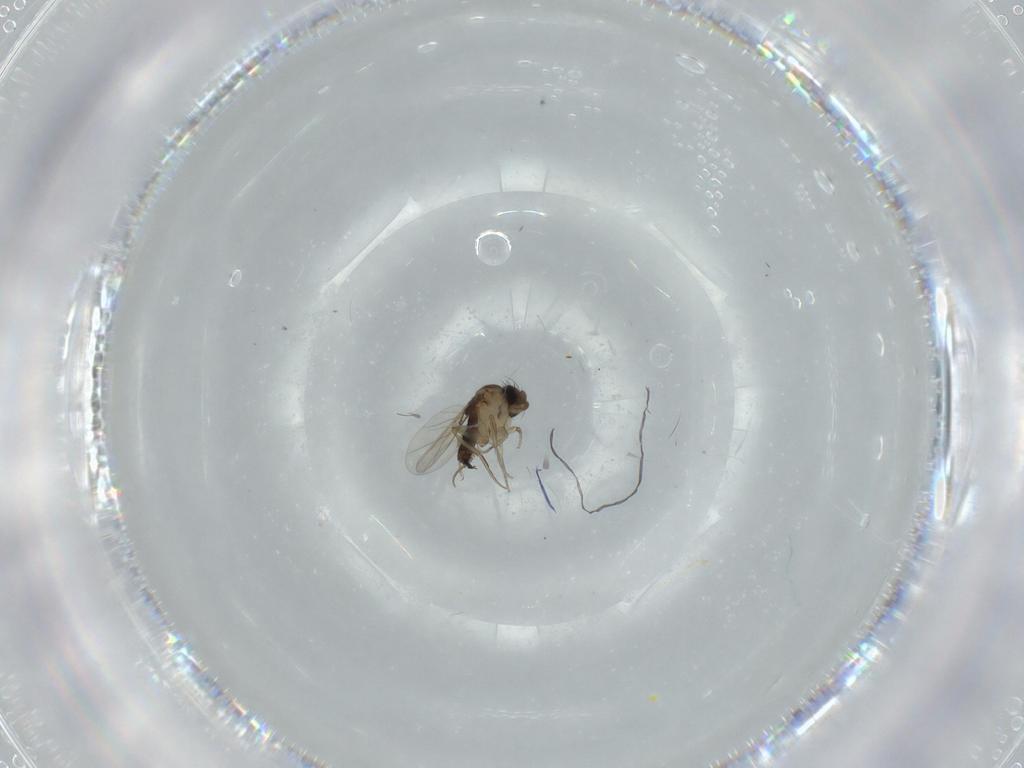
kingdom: Animalia
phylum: Arthropoda
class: Insecta
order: Diptera
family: Phoridae
